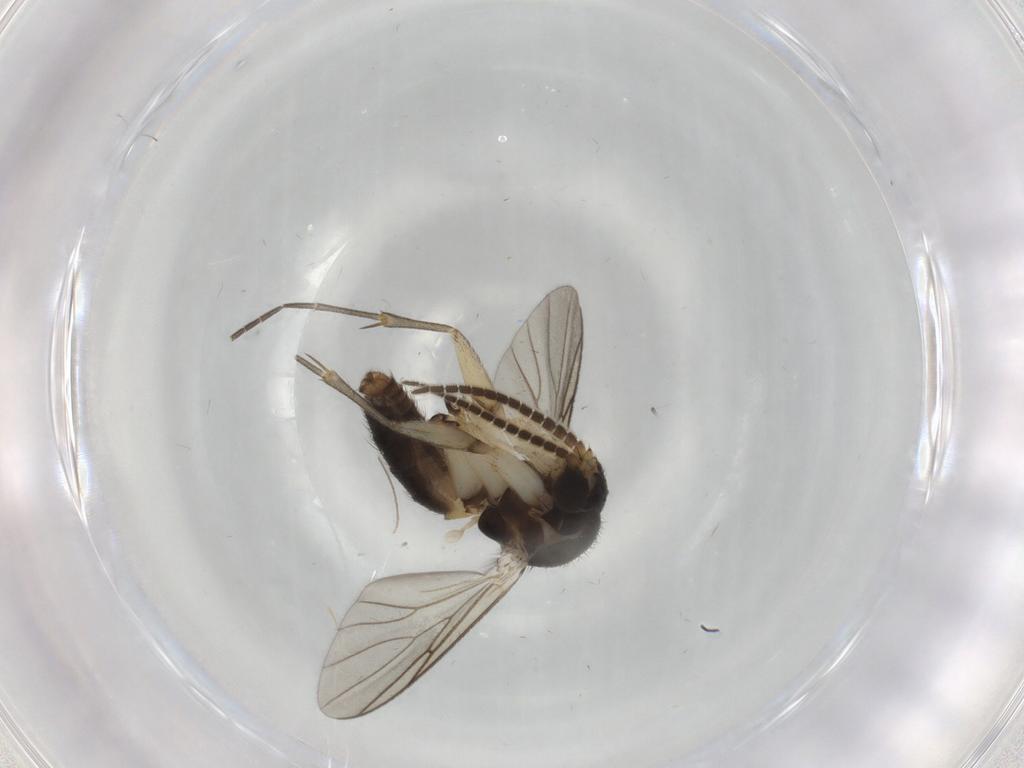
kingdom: Animalia
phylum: Arthropoda
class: Insecta
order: Diptera
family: Mycetophilidae
